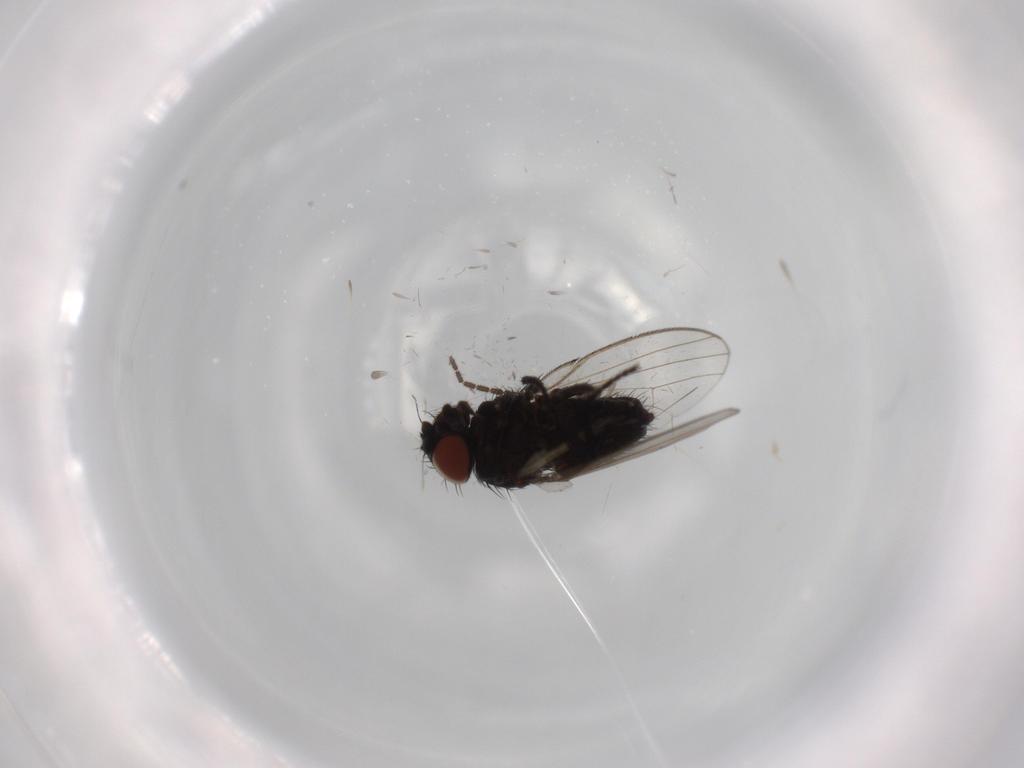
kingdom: Animalia
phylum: Arthropoda
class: Insecta
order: Diptera
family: Sciaridae
